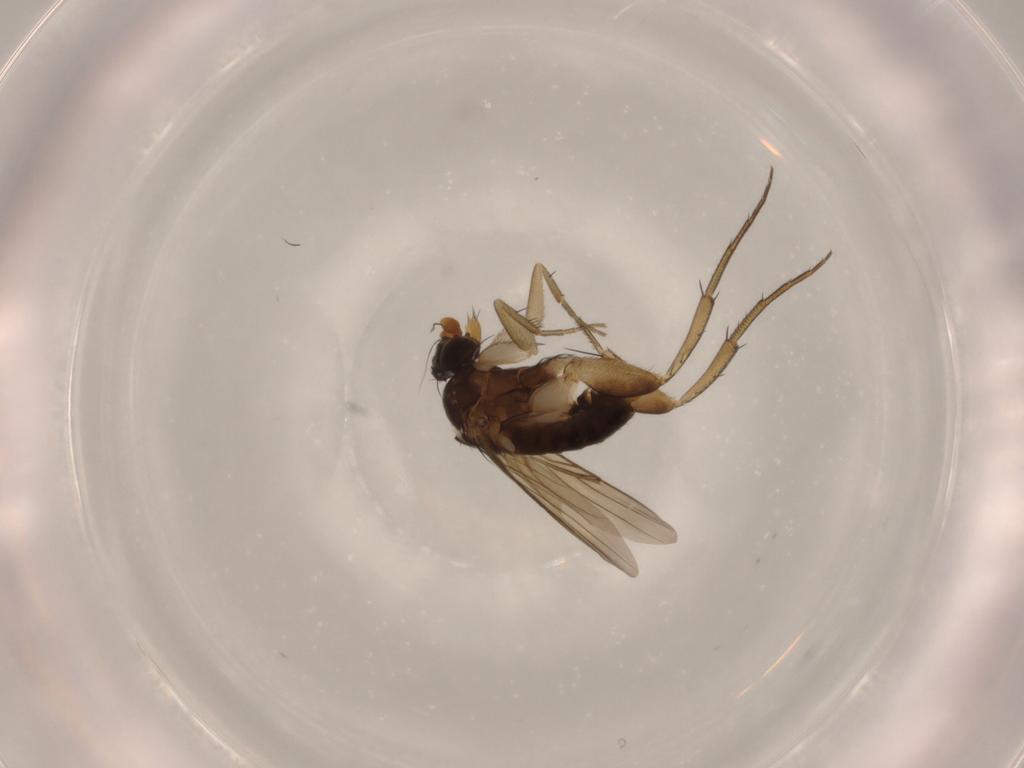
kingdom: Animalia
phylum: Arthropoda
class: Insecta
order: Diptera
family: Phoridae
